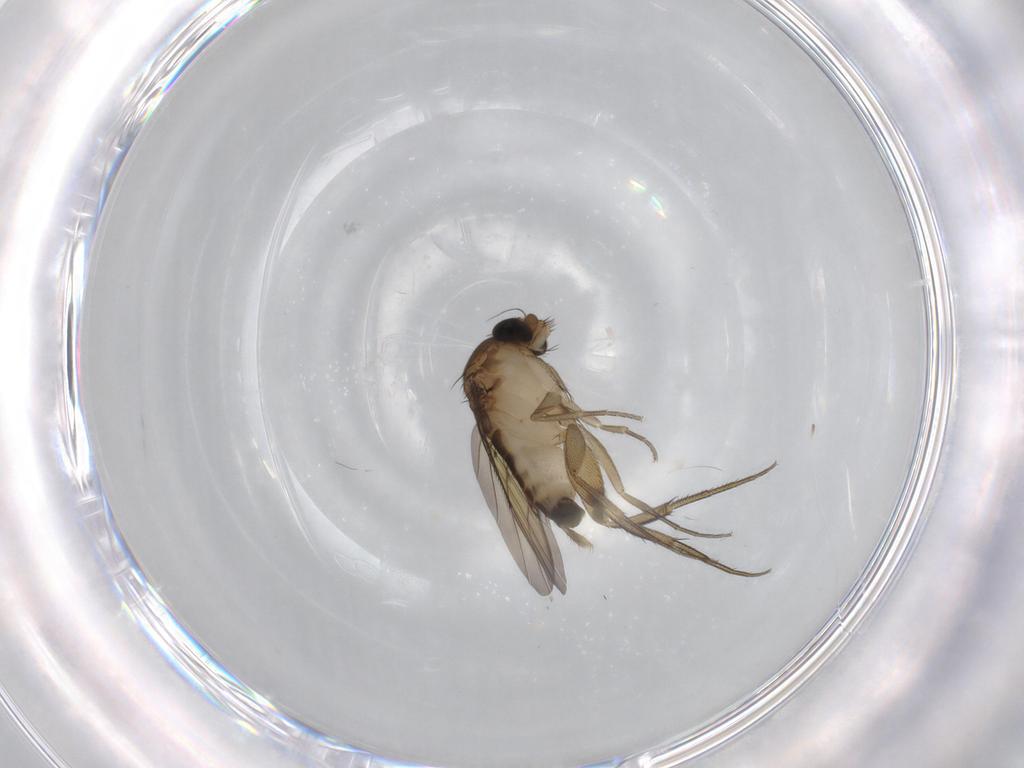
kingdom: Animalia
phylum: Arthropoda
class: Insecta
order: Diptera
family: Phoridae
